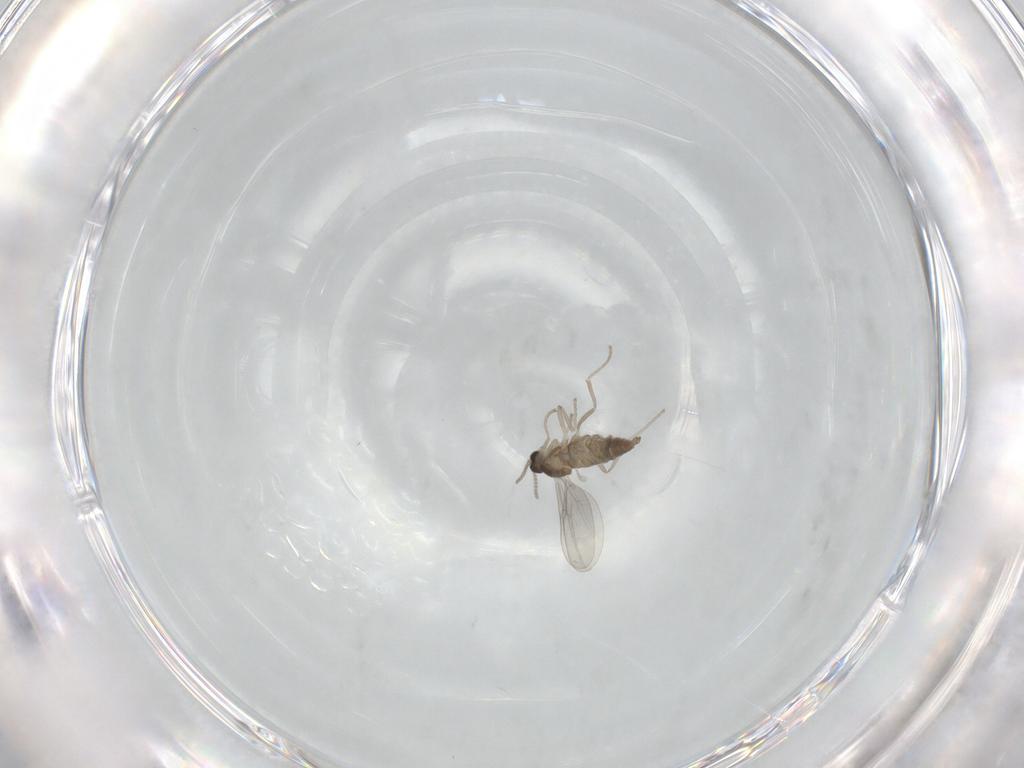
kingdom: Animalia
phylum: Arthropoda
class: Insecta
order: Diptera
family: Cecidomyiidae
